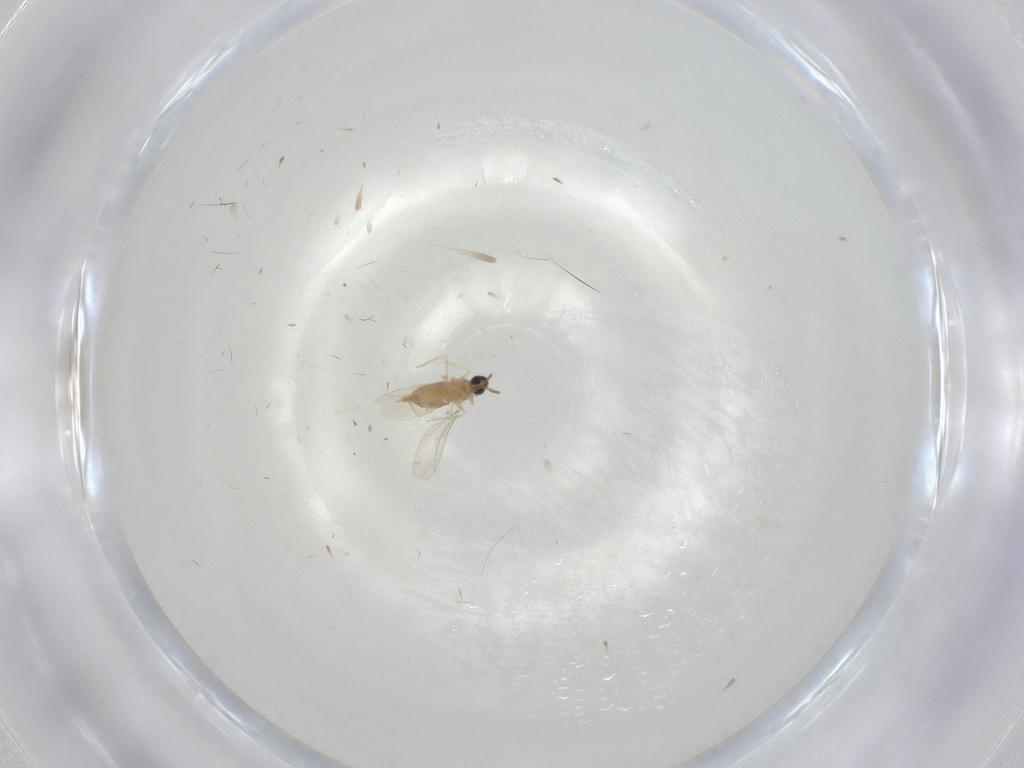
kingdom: Animalia
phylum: Arthropoda
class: Insecta
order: Diptera
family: Cecidomyiidae
